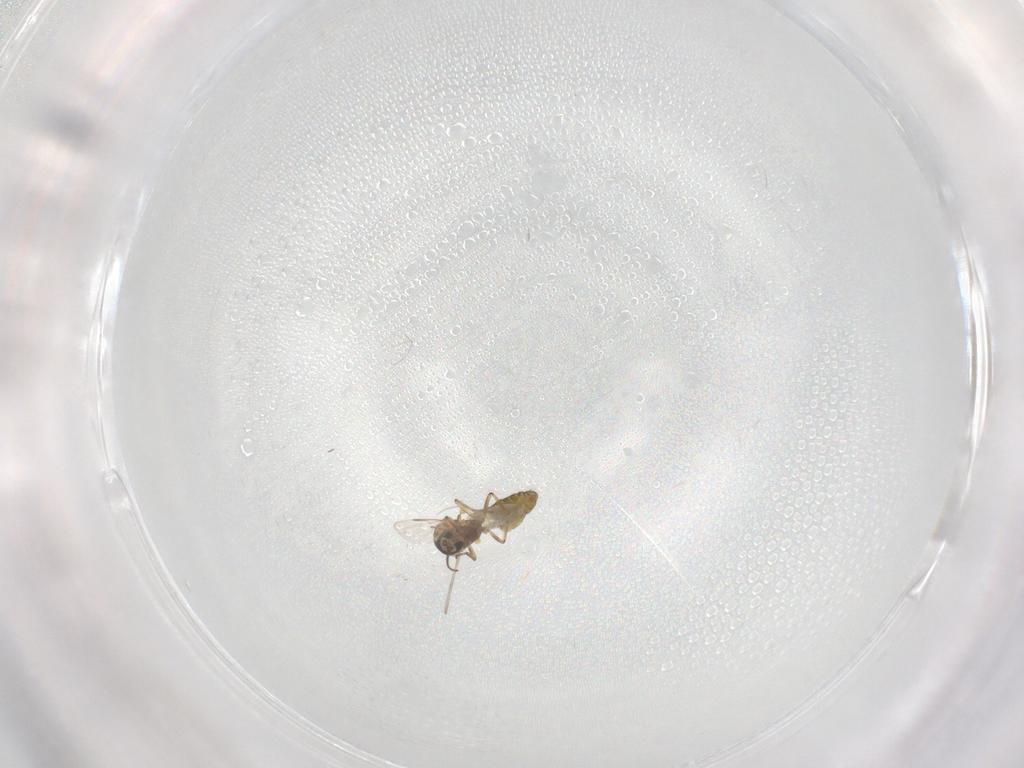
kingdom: Animalia
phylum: Arthropoda
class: Insecta
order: Diptera
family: Ceratopogonidae
